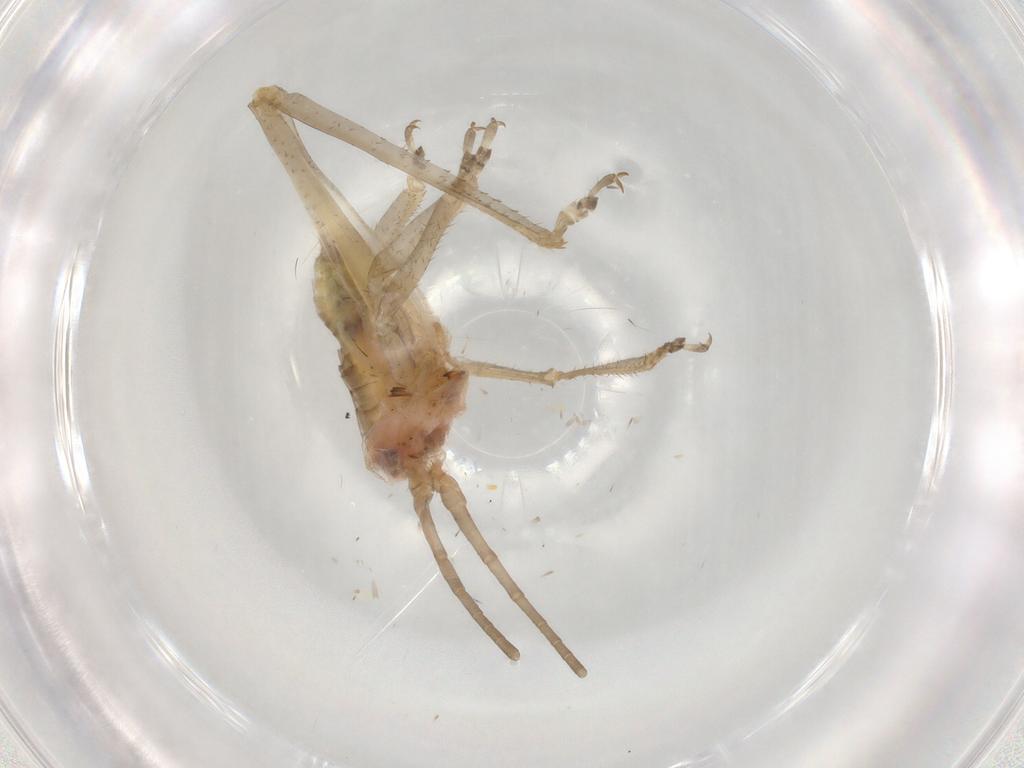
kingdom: Animalia
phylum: Arthropoda
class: Insecta
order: Orthoptera
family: Tettigoniidae
